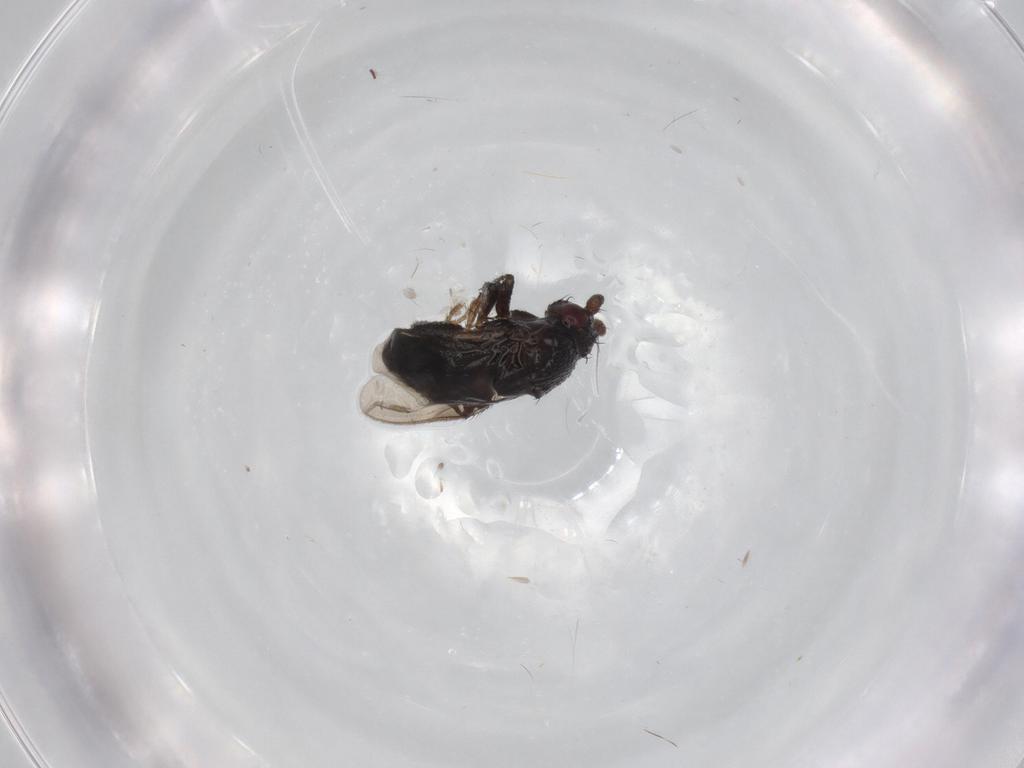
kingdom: Animalia
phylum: Arthropoda
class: Insecta
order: Diptera
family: Sphaeroceridae
